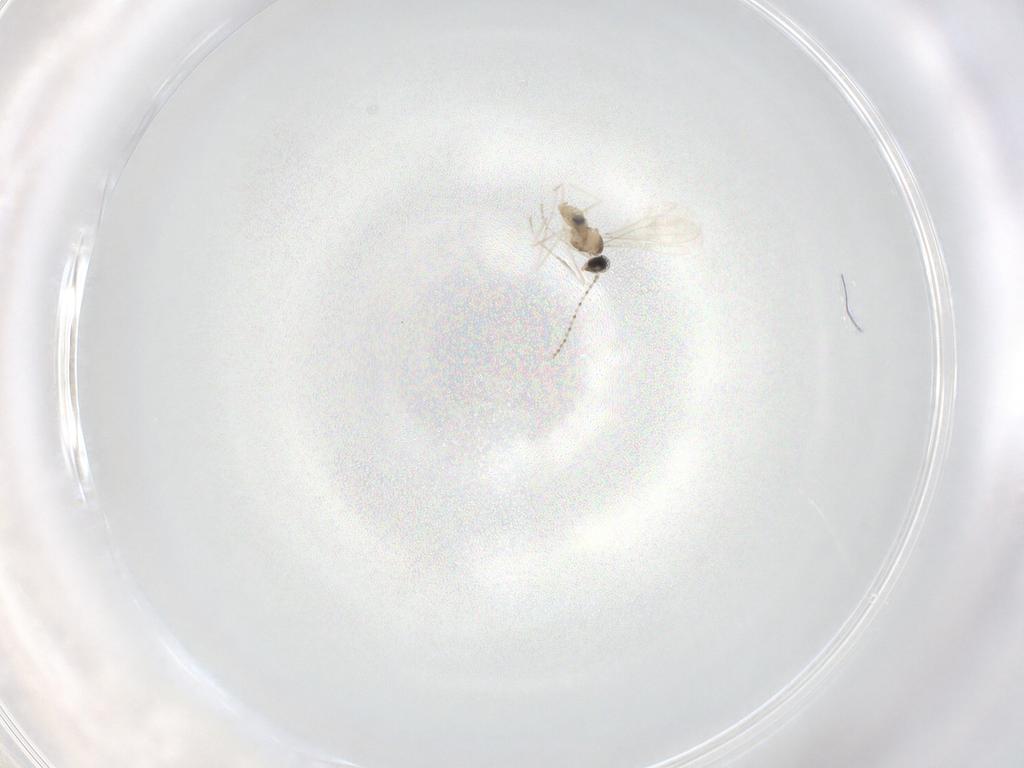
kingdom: Animalia
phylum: Arthropoda
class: Insecta
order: Diptera
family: Cecidomyiidae
